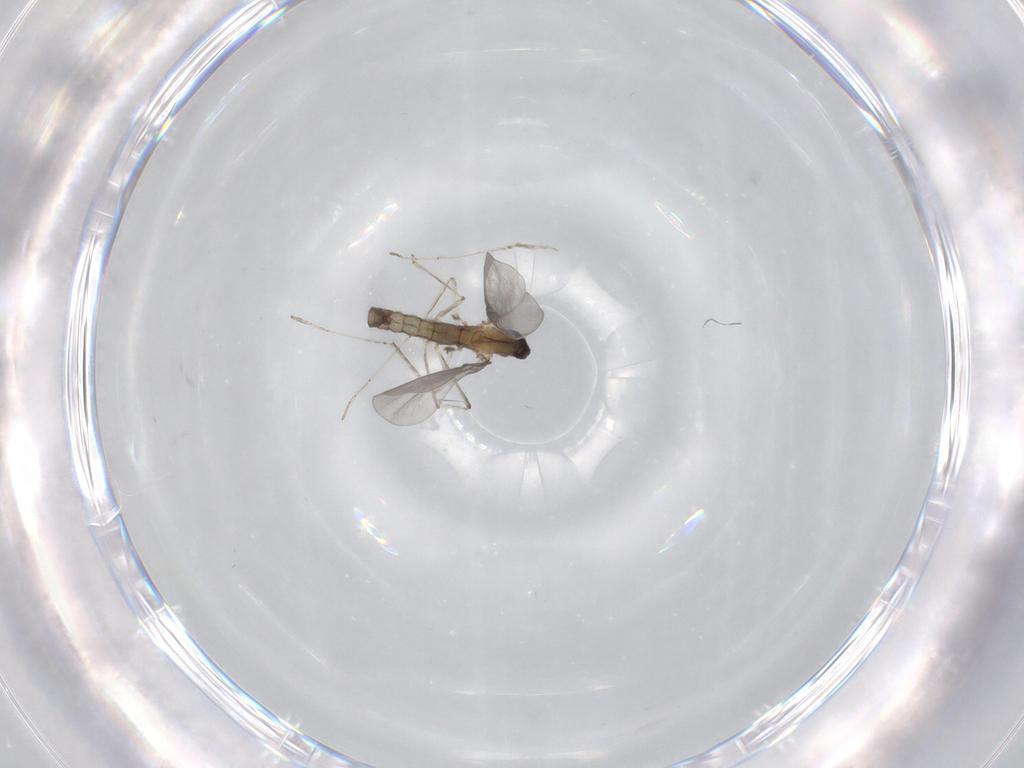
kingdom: Animalia
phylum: Arthropoda
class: Insecta
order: Diptera
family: Cecidomyiidae
